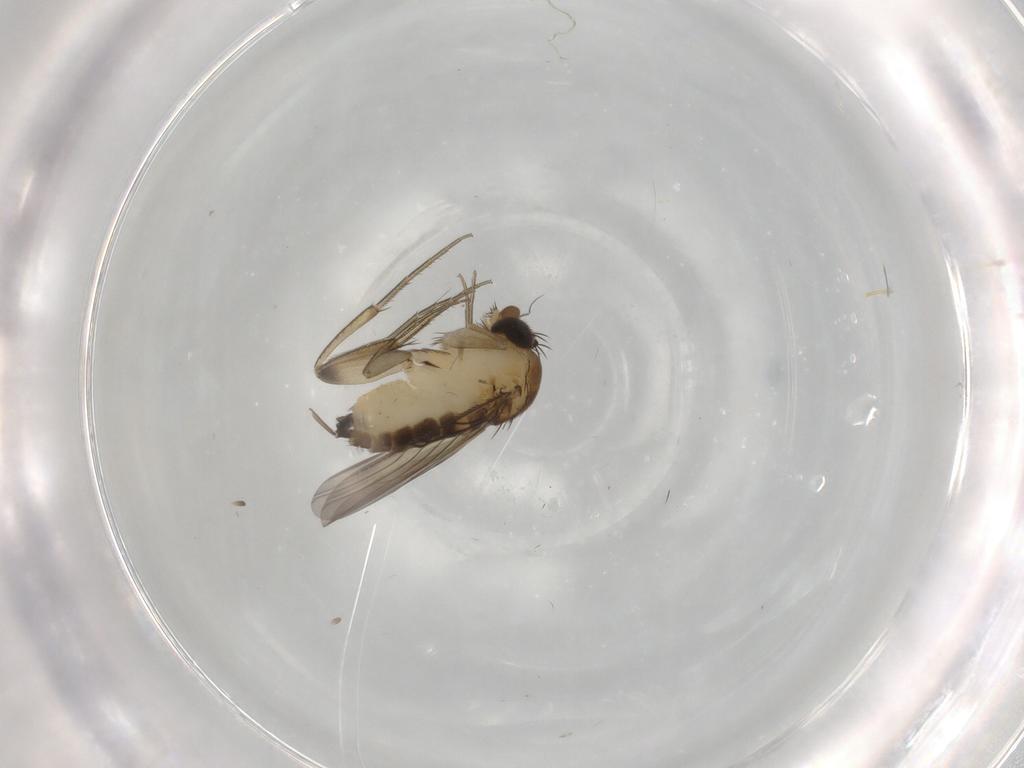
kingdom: Animalia
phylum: Arthropoda
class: Insecta
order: Diptera
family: Phoridae
